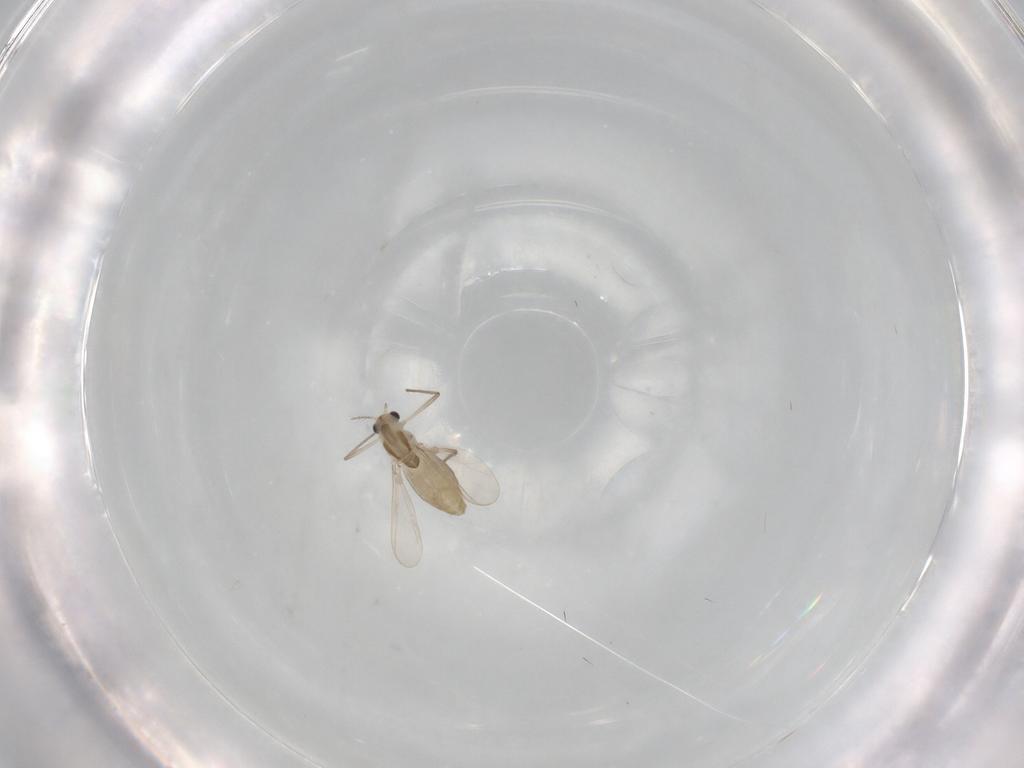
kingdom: Animalia
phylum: Arthropoda
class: Insecta
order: Diptera
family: Chironomidae
